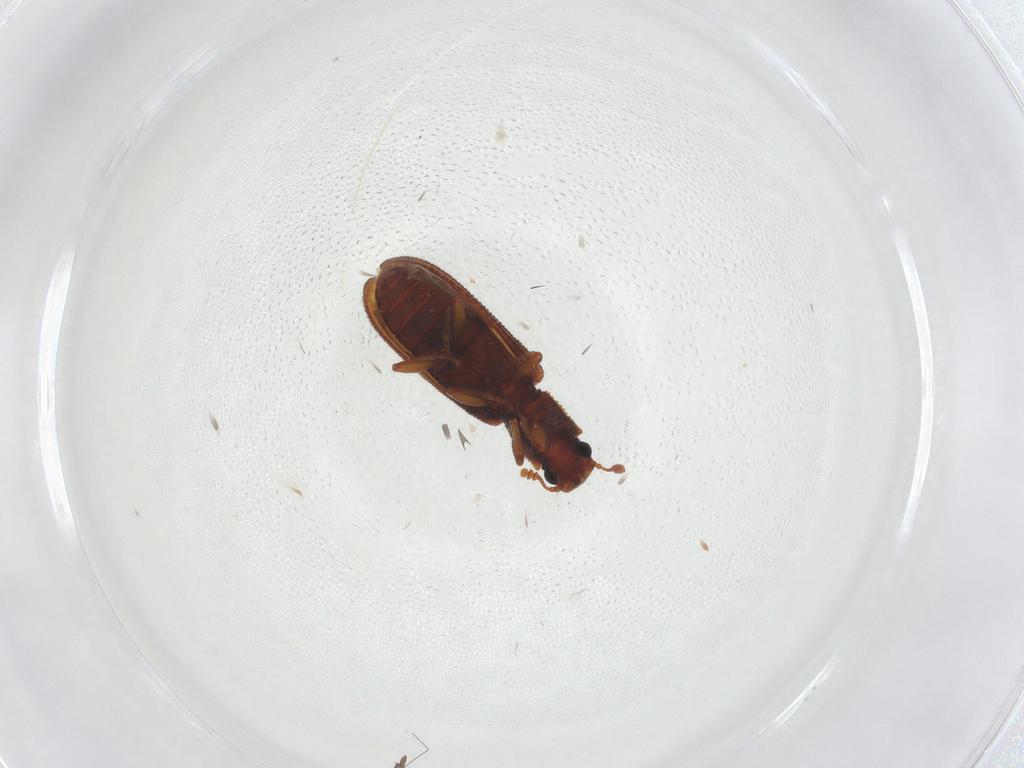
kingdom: Animalia
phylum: Arthropoda
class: Insecta
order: Coleoptera
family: Zopheridae
